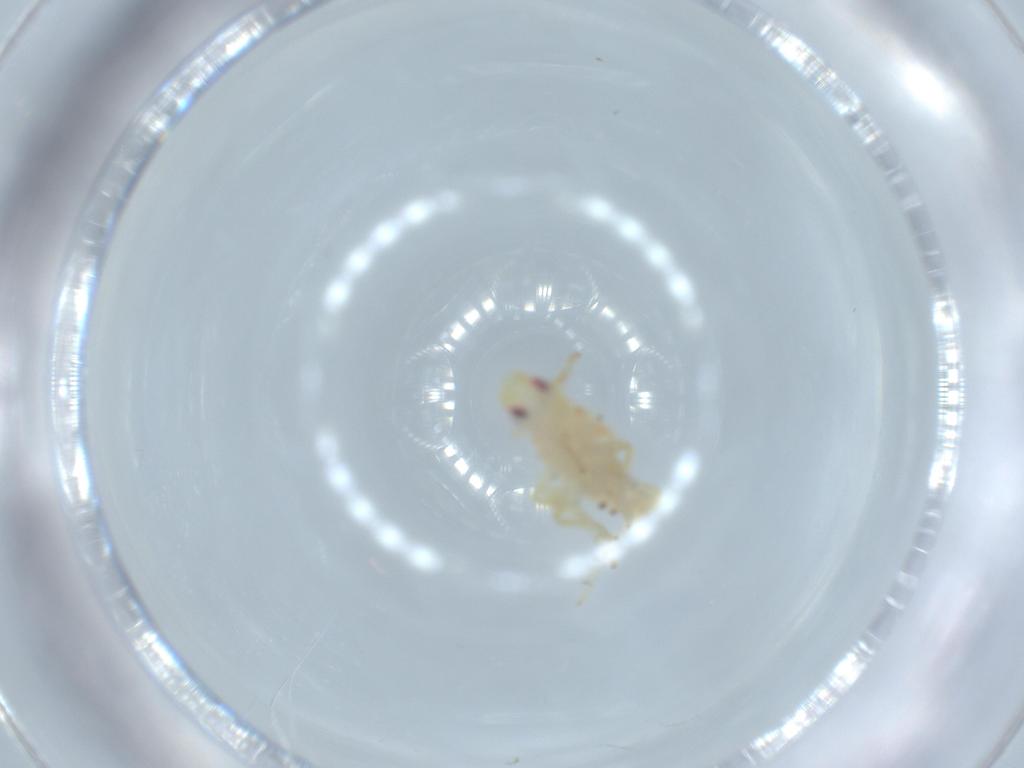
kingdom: Animalia
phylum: Arthropoda
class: Insecta
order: Hemiptera
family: Tropiduchidae
